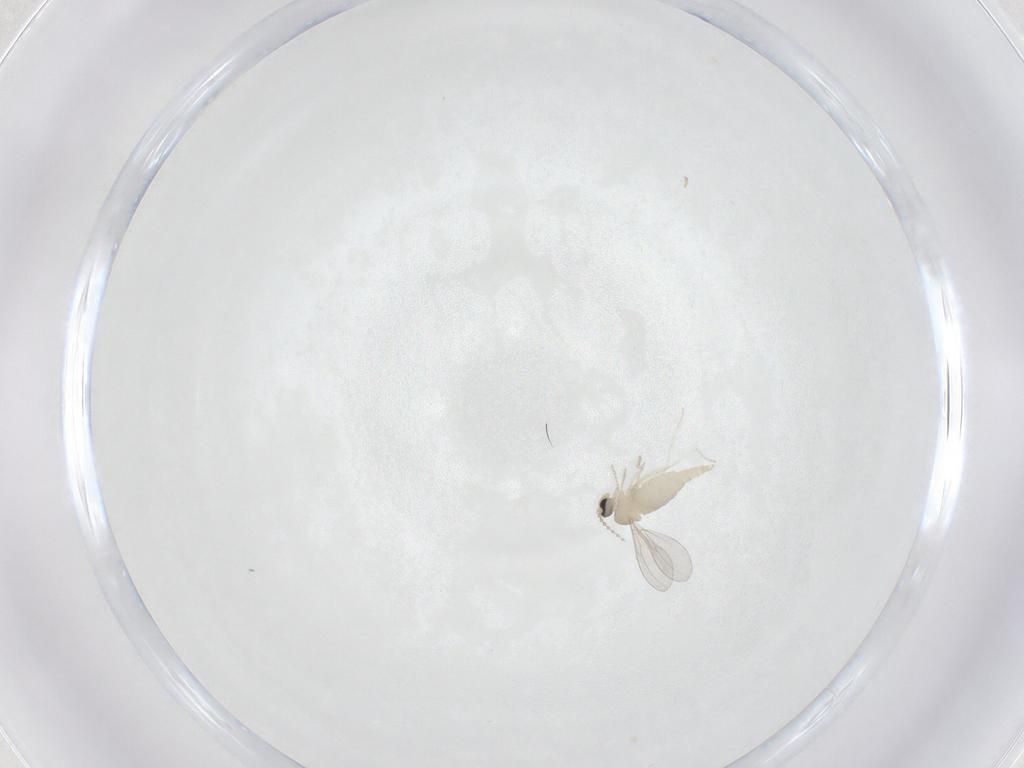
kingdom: Animalia
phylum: Arthropoda
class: Insecta
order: Diptera
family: Cecidomyiidae
